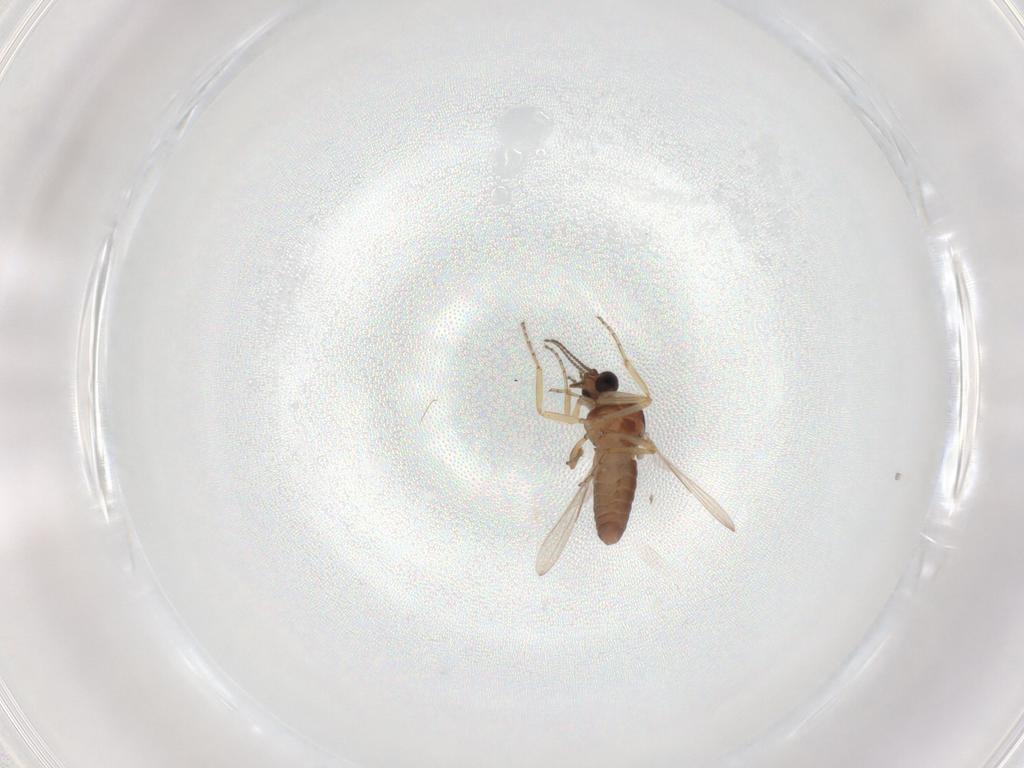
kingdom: Animalia
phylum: Arthropoda
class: Insecta
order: Diptera
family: Ceratopogonidae
